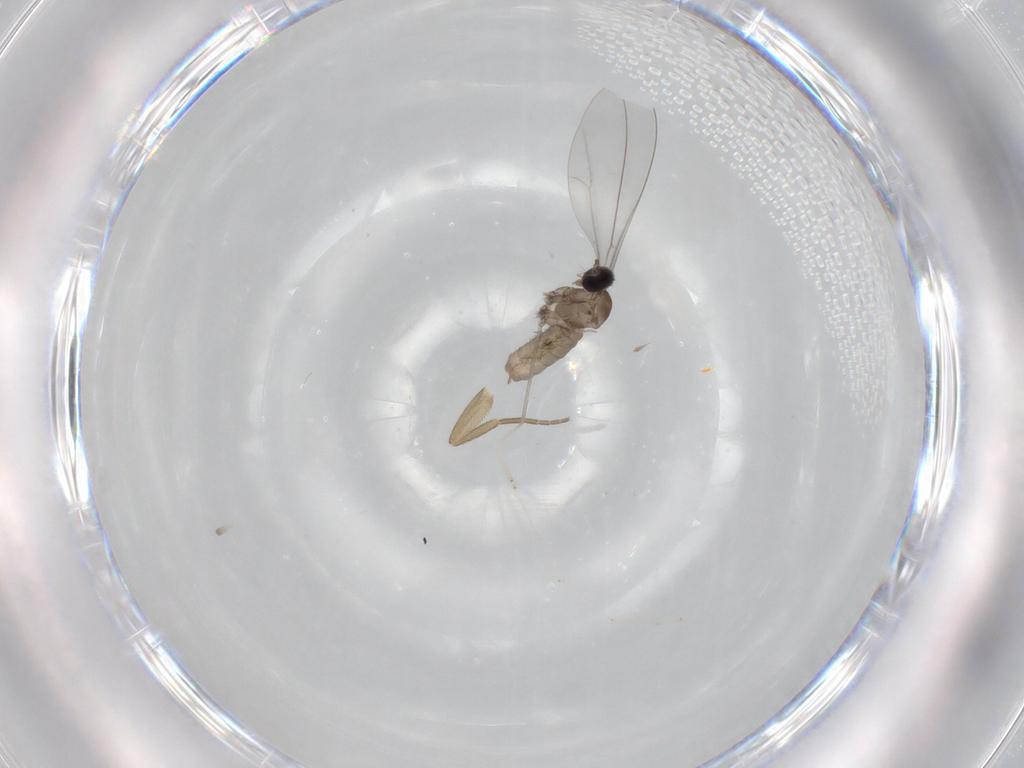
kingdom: Animalia
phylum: Arthropoda
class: Insecta
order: Diptera
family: Cecidomyiidae
